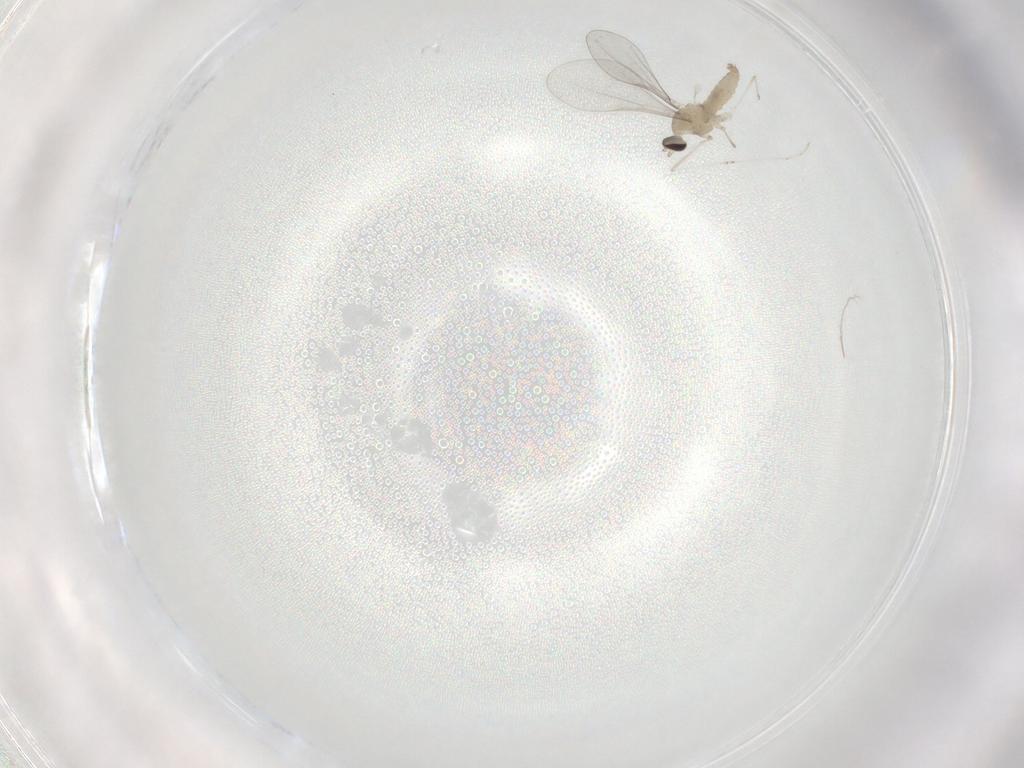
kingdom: Animalia
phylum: Arthropoda
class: Insecta
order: Diptera
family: Cecidomyiidae
